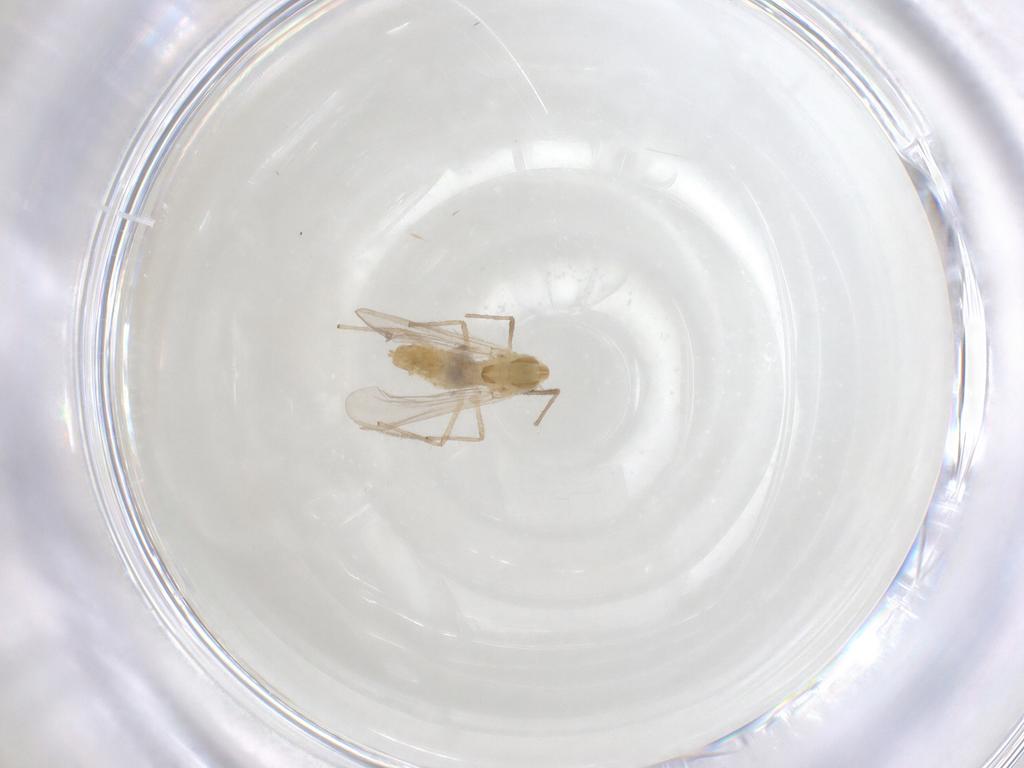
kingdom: Animalia
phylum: Arthropoda
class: Insecta
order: Diptera
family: Chironomidae
